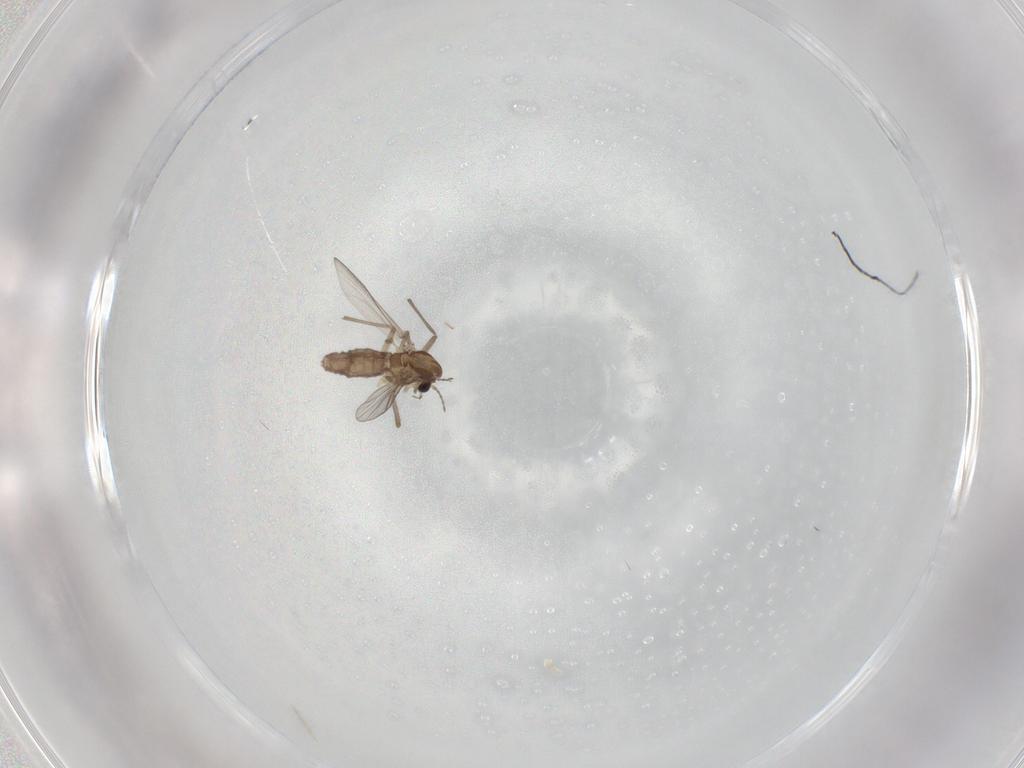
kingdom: Animalia
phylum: Arthropoda
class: Insecta
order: Diptera
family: Chironomidae
